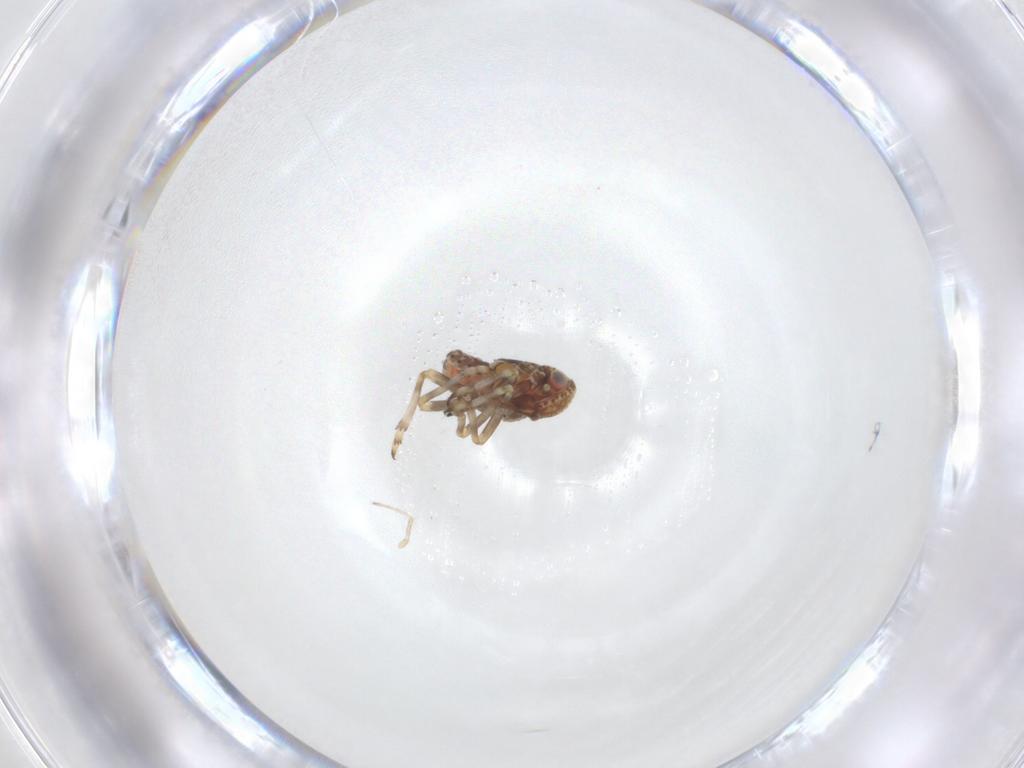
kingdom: Animalia
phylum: Arthropoda
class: Insecta
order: Hemiptera
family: Tropiduchidae
